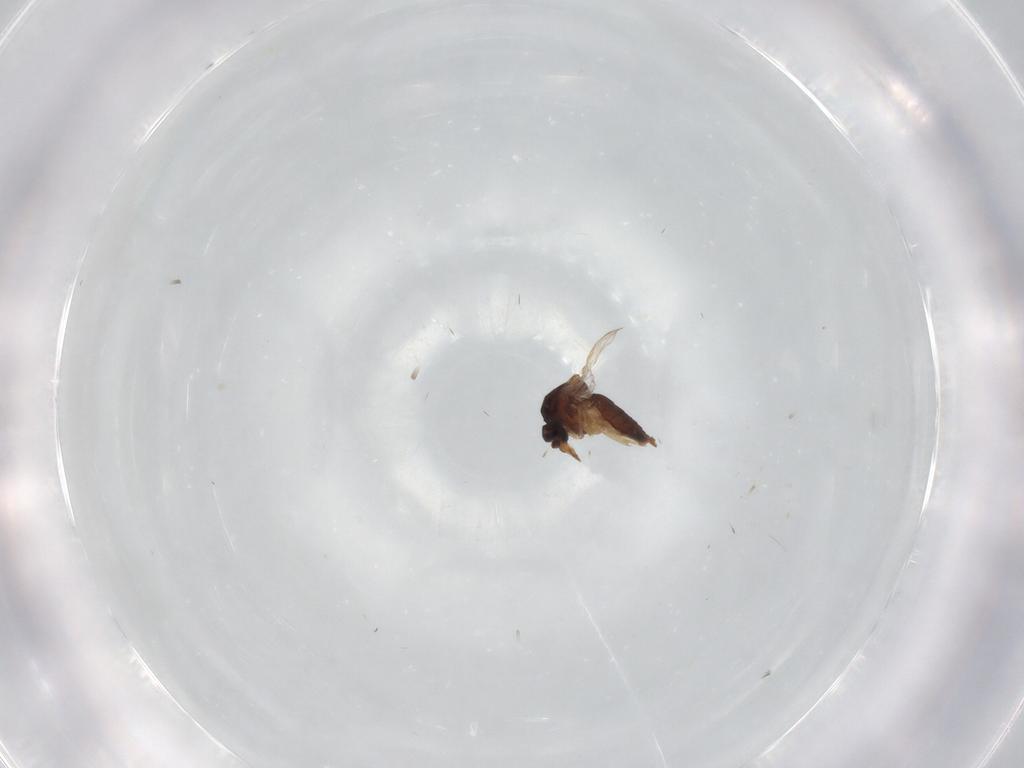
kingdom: Animalia
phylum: Arthropoda
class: Insecta
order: Diptera
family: Ceratopogonidae
